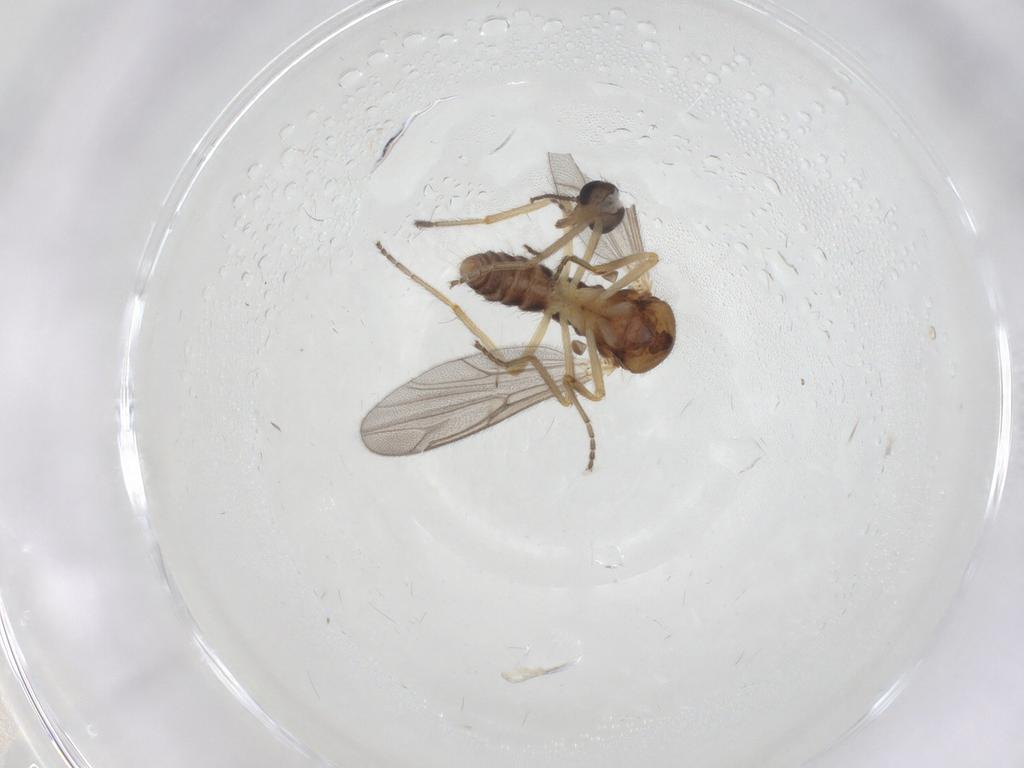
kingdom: Animalia
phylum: Arthropoda
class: Insecta
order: Diptera
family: Ceratopogonidae
